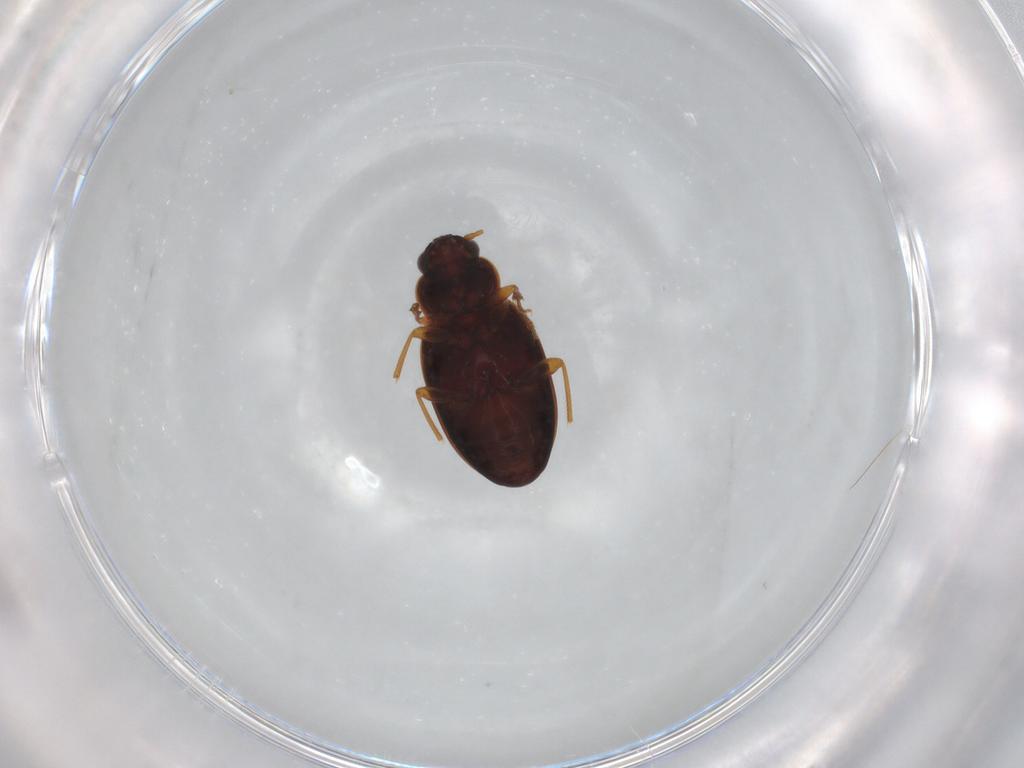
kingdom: Animalia
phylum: Arthropoda
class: Insecta
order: Coleoptera
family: Carabidae
